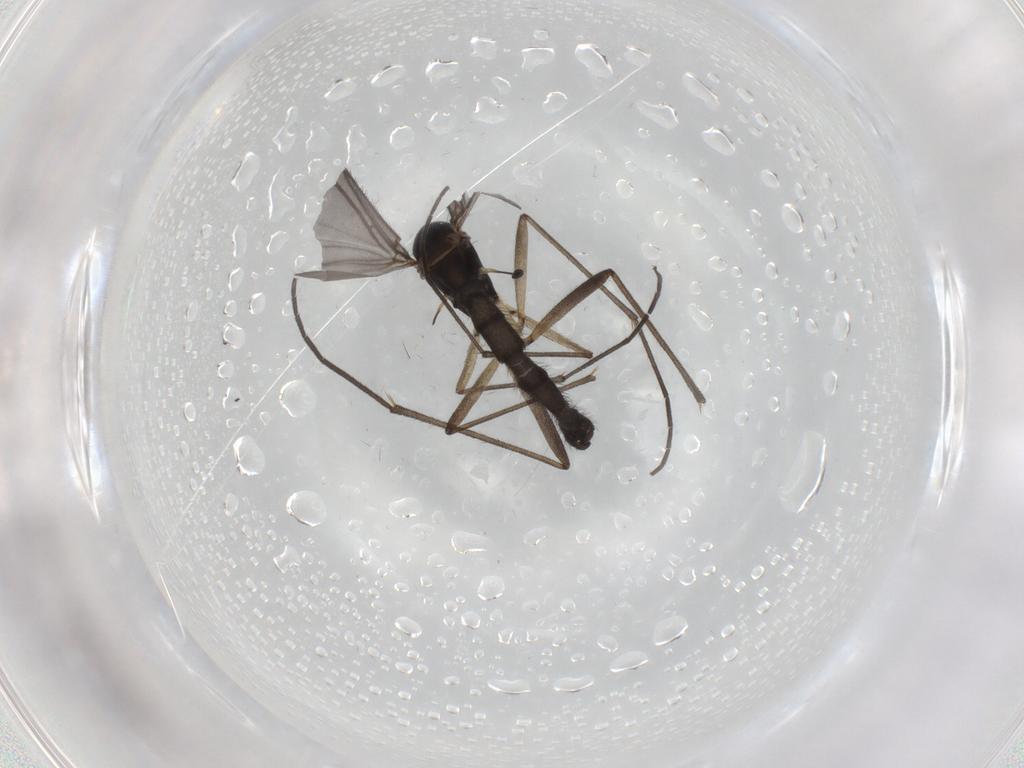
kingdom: Animalia
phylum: Arthropoda
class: Insecta
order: Diptera
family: Sciaridae
